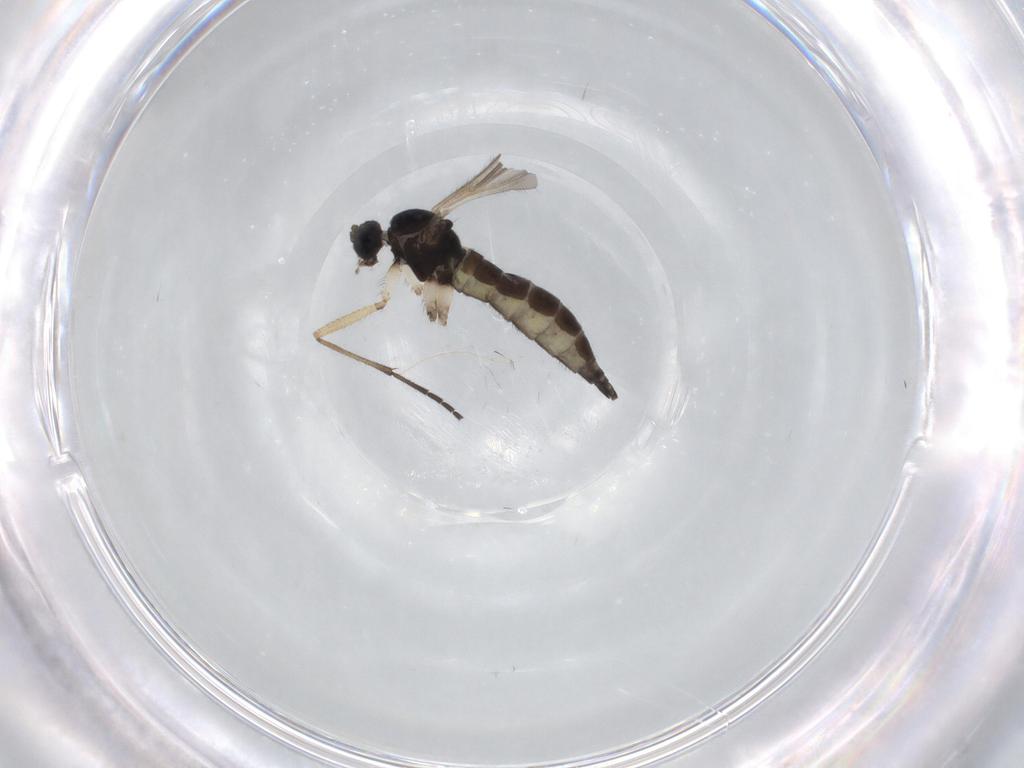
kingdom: Animalia
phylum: Arthropoda
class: Insecta
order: Diptera
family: Sciaridae
